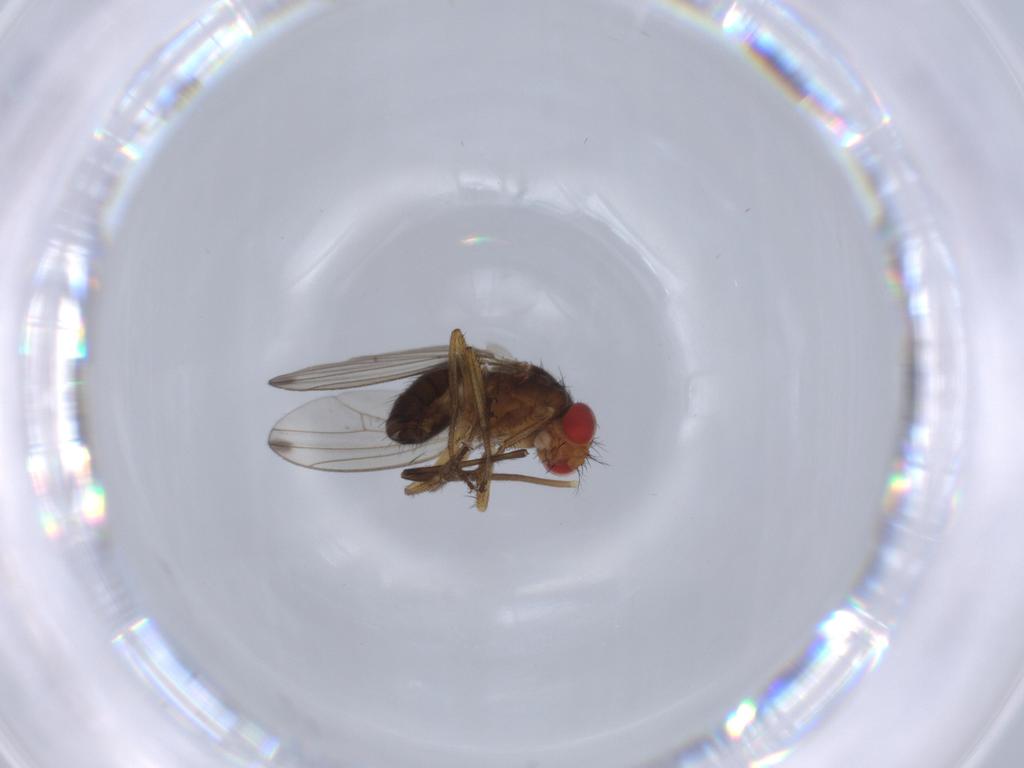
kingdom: Animalia
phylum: Arthropoda
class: Insecta
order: Diptera
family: Drosophilidae
